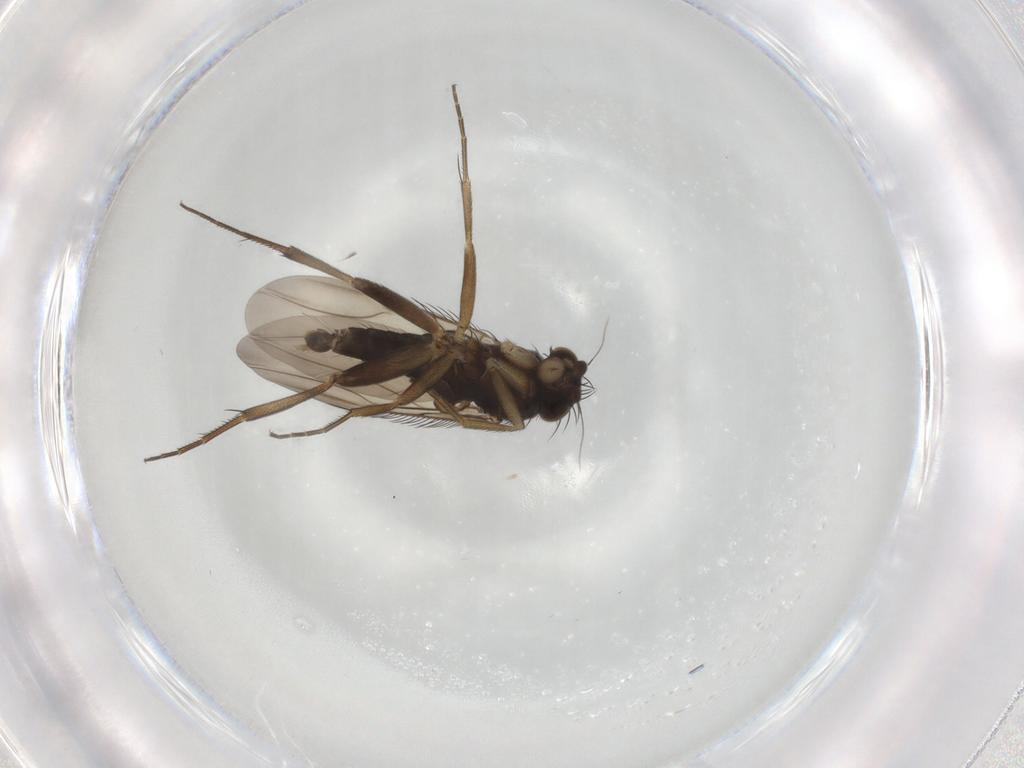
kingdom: Animalia
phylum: Arthropoda
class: Insecta
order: Diptera
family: Phoridae
